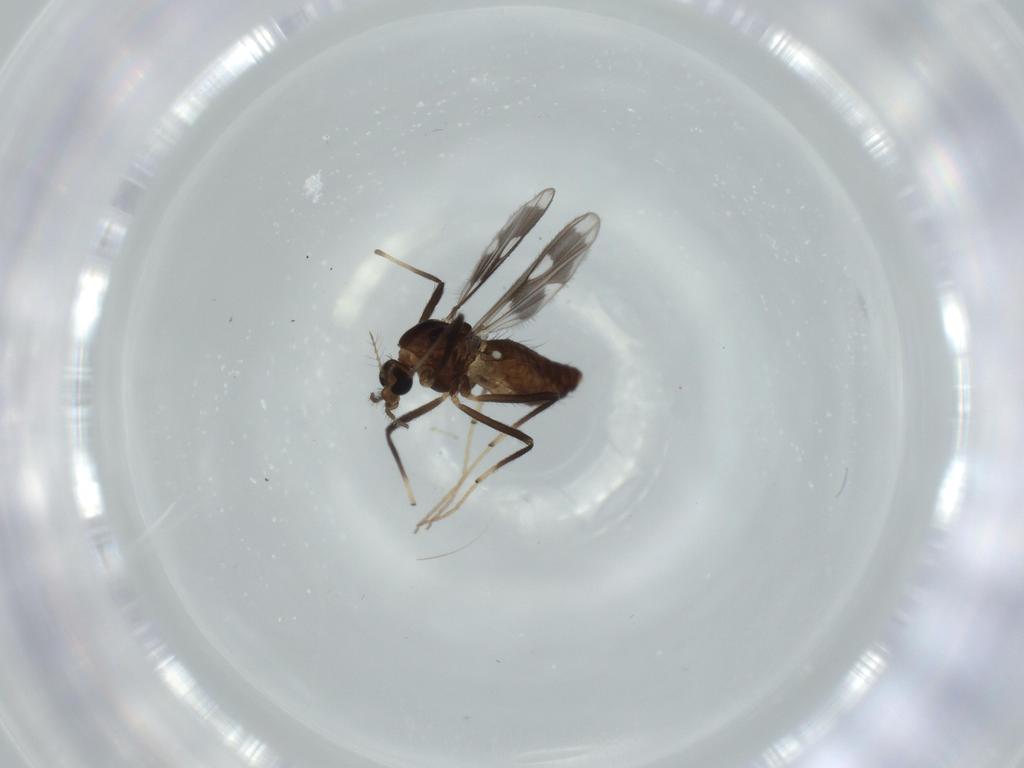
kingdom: Animalia
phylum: Arthropoda
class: Insecta
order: Diptera
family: Chironomidae
